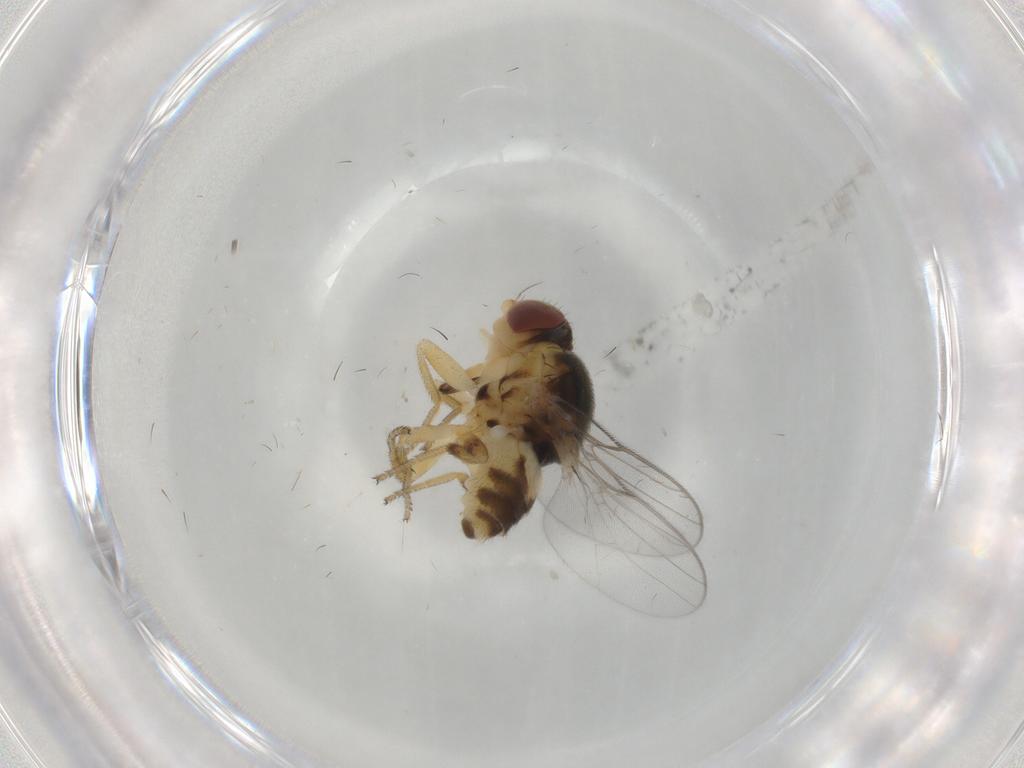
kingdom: Animalia
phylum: Arthropoda
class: Insecta
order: Diptera
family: Chloropidae
